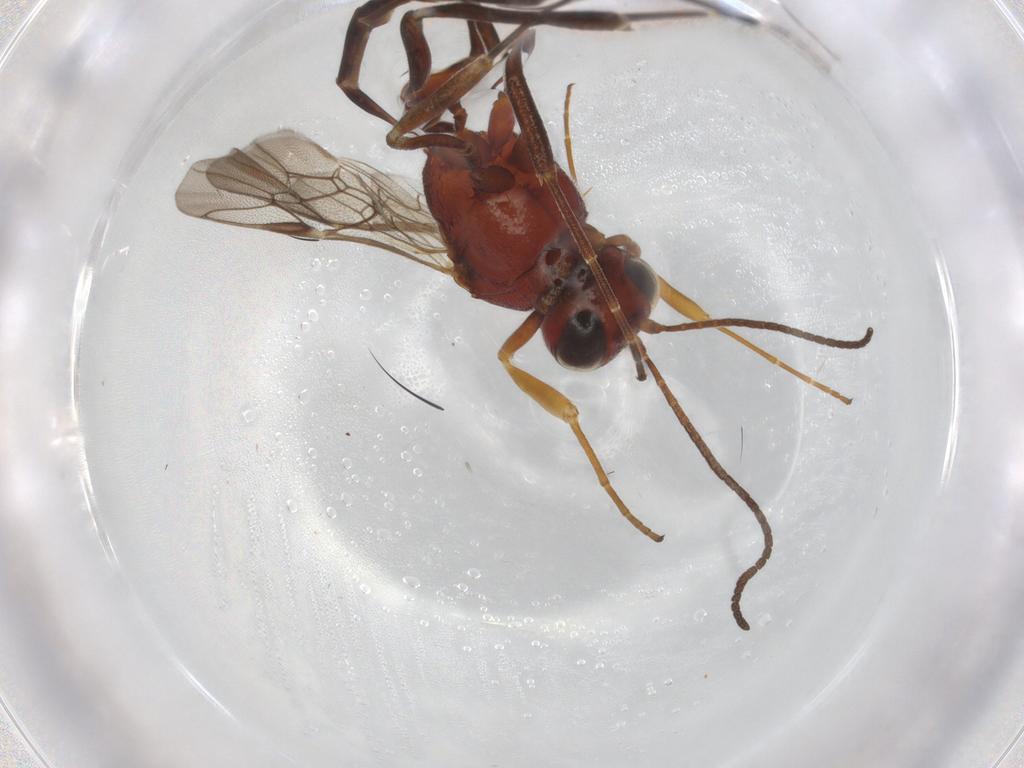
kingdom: Animalia
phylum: Arthropoda
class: Insecta
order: Hymenoptera
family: Ichneumonidae
